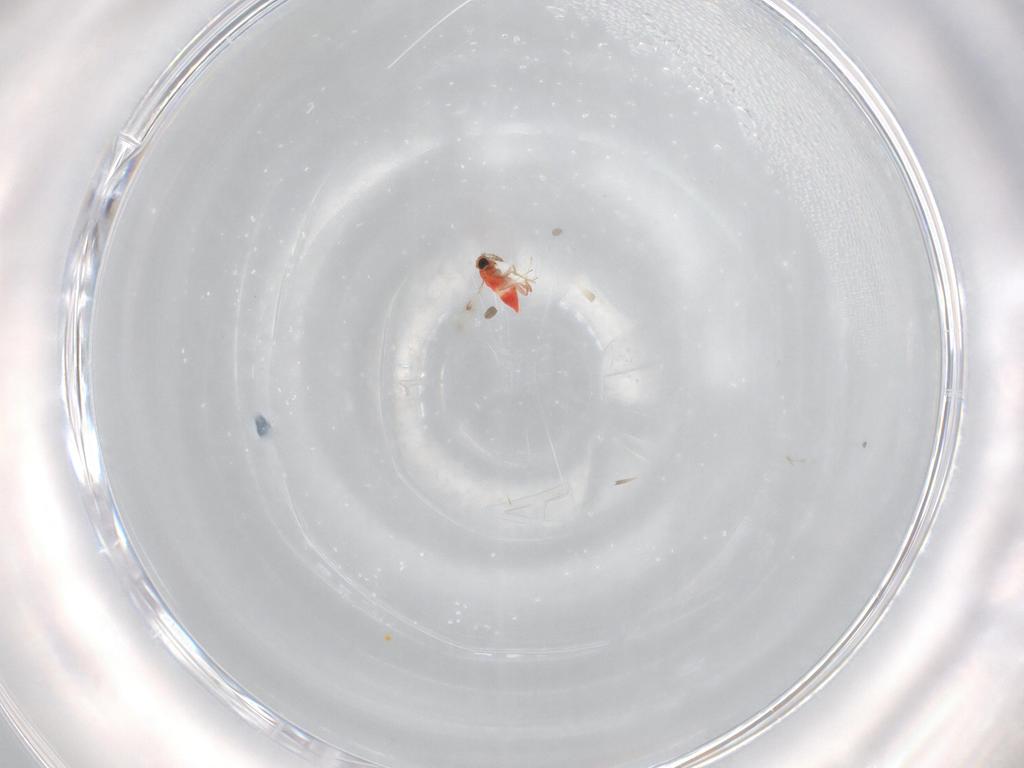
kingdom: Animalia
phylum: Arthropoda
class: Insecta
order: Hymenoptera
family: Trichogrammatidae
